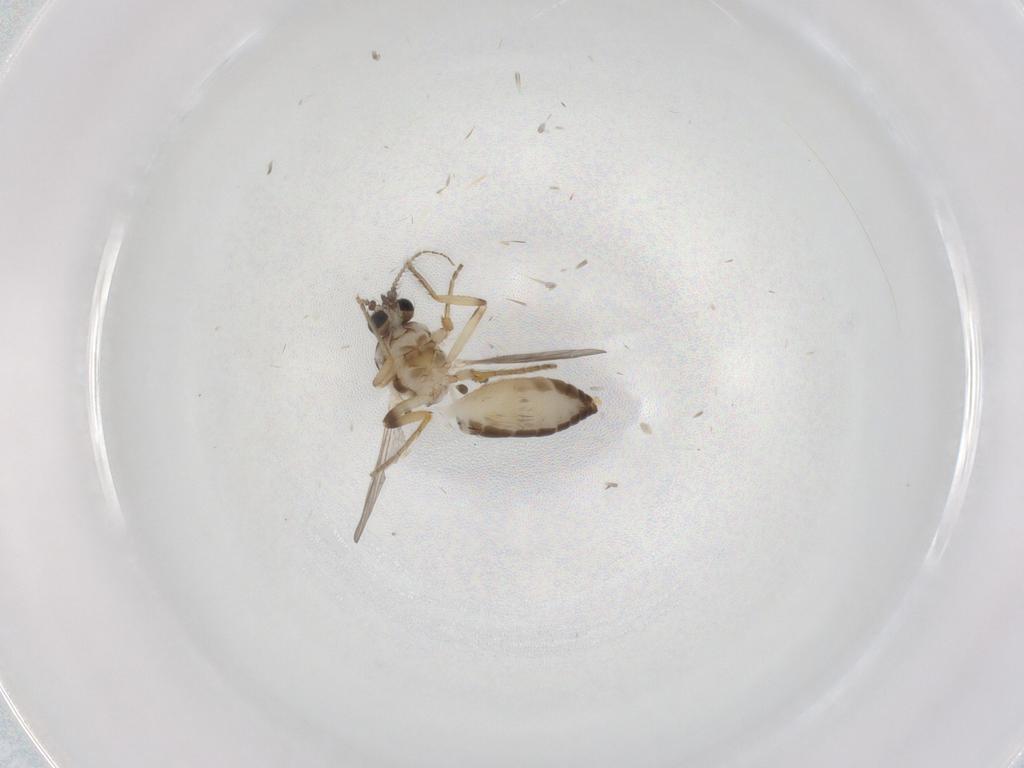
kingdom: Animalia
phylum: Arthropoda
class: Insecta
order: Diptera
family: Ceratopogonidae
